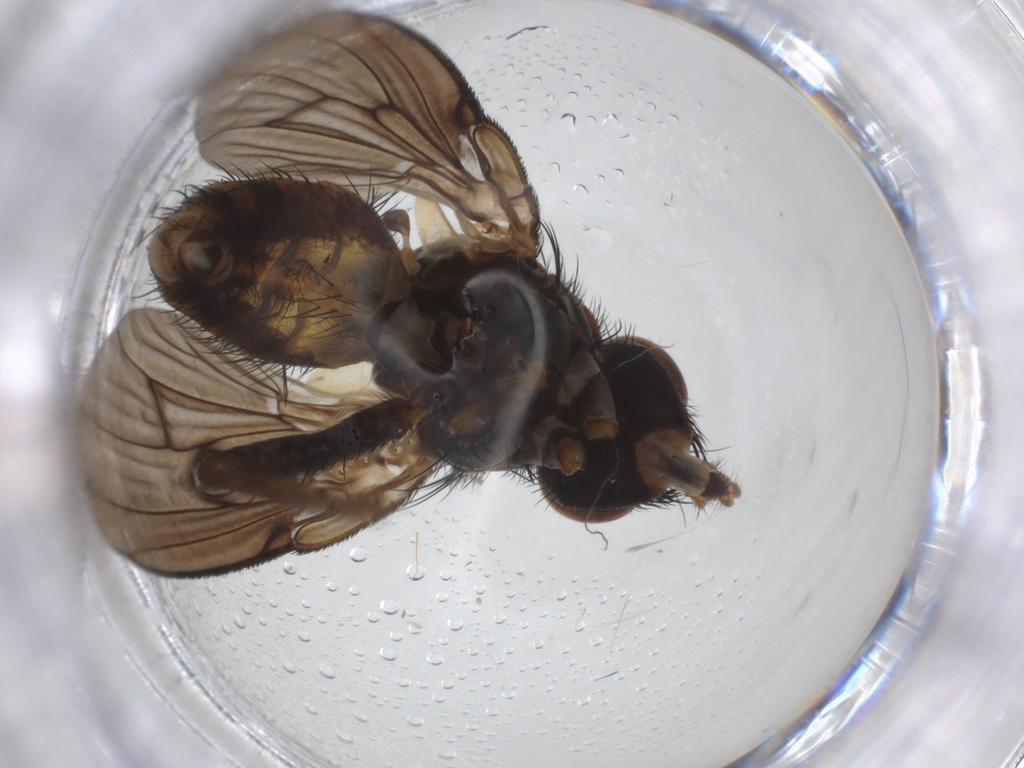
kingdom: Animalia
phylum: Arthropoda
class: Insecta
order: Diptera
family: Muscidae
